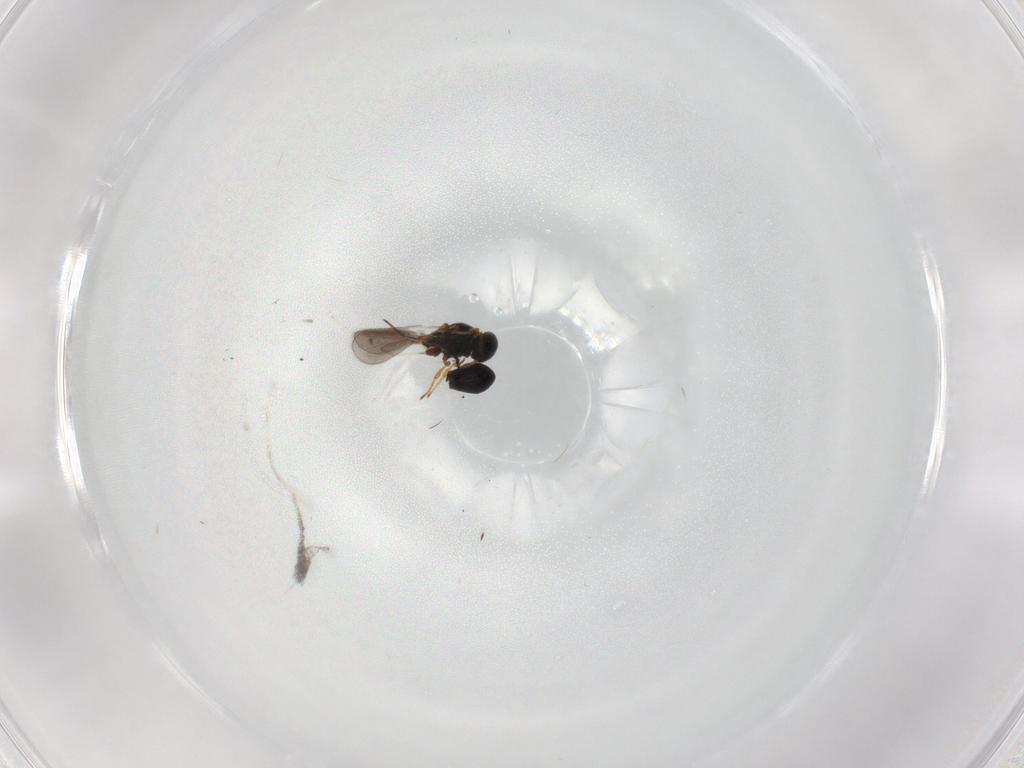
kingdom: Animalia
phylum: Arthropoda
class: Insecta
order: Hymenoptera
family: Platygastridae
